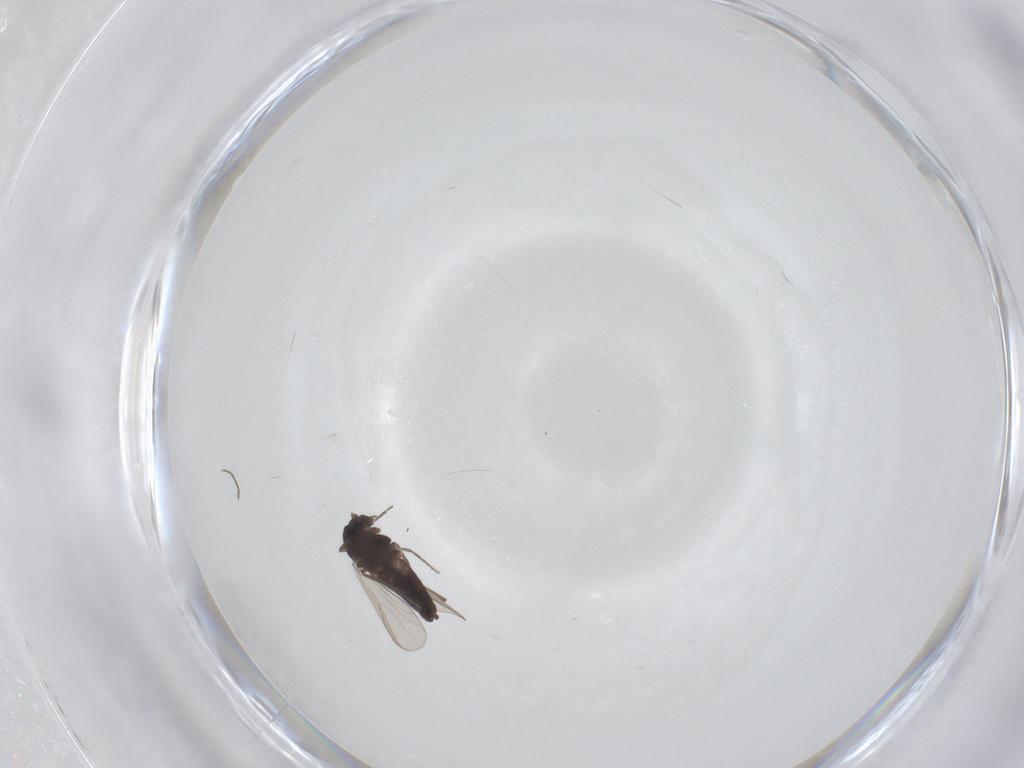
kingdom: Animalia
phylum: Arthropoda
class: Insecta
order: Diptera
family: Chironomidae
